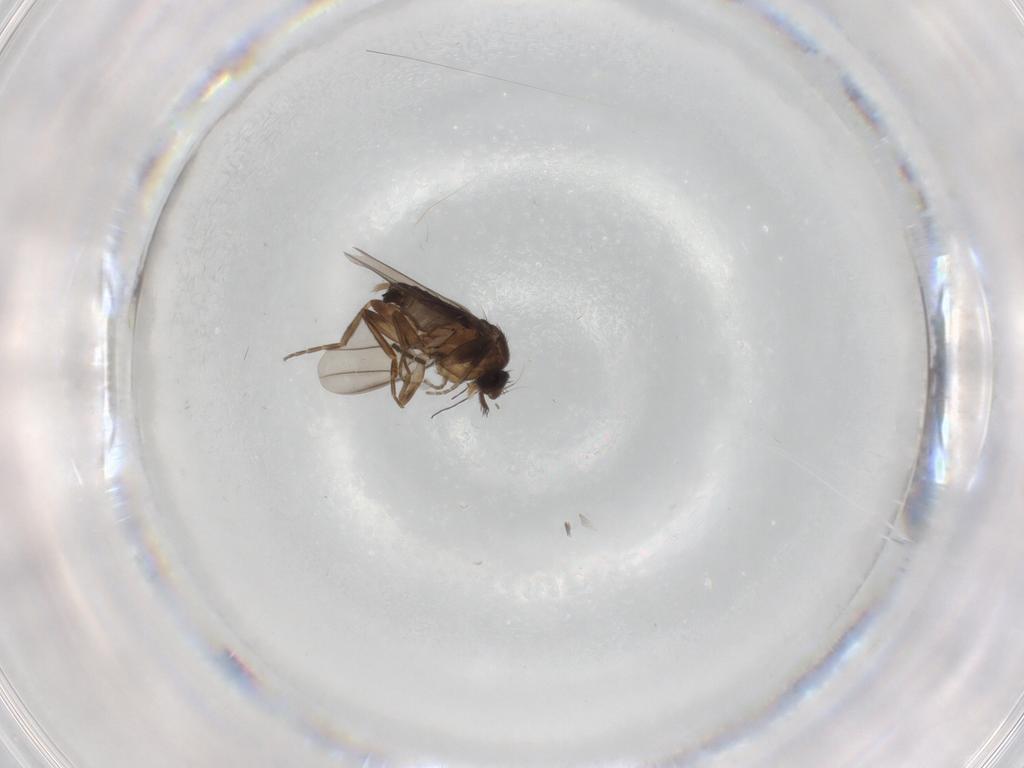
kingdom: Animalia
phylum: Arthropoda
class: Insecta
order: Diptera
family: Sciaridae
